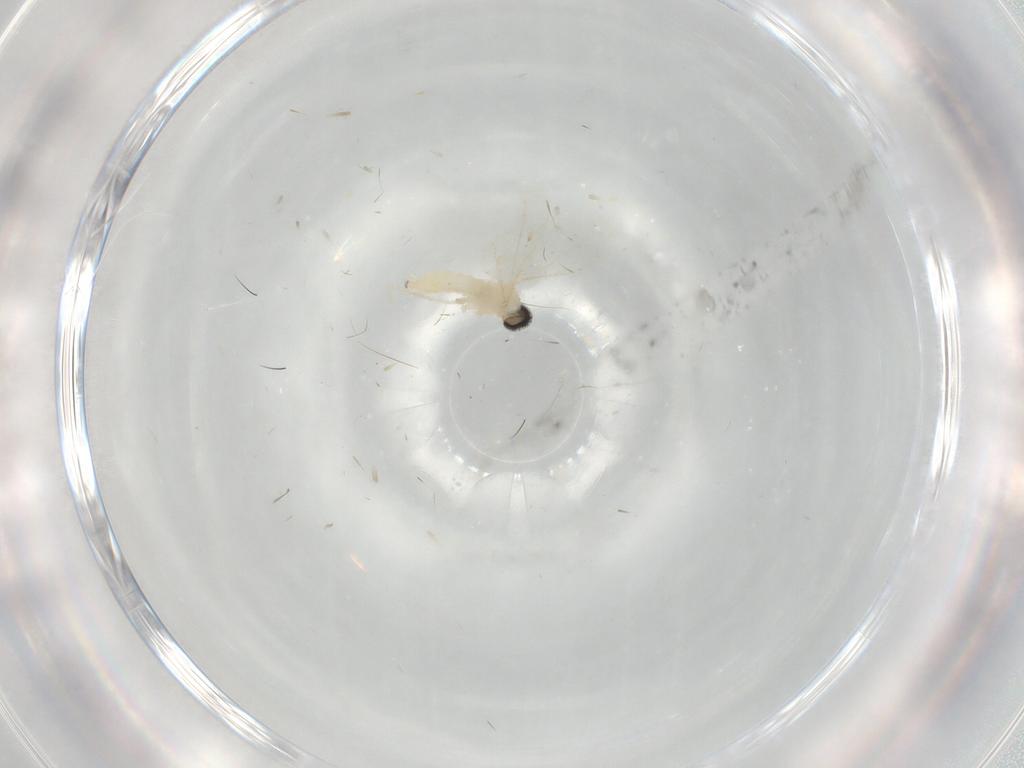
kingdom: Animalia
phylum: Arthropoda
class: Insecta
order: Diptera
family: Cecidomyiidae
